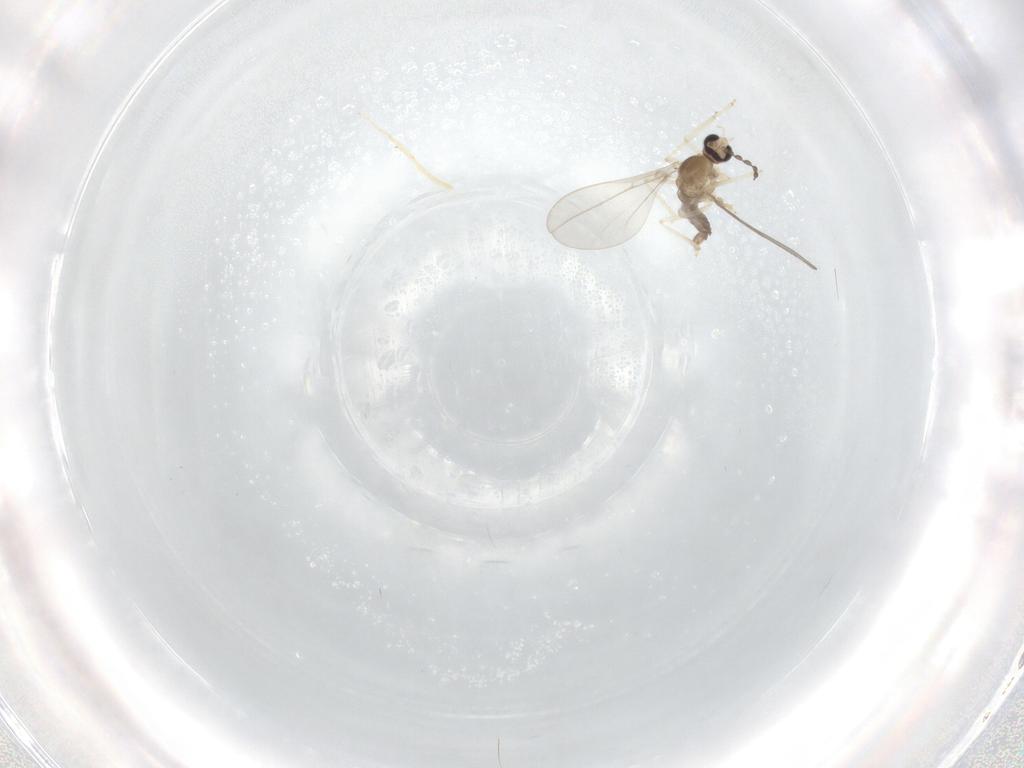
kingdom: Animalia
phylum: Arthropoda
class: Insecta
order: Diptera
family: Cecidomyiidae
